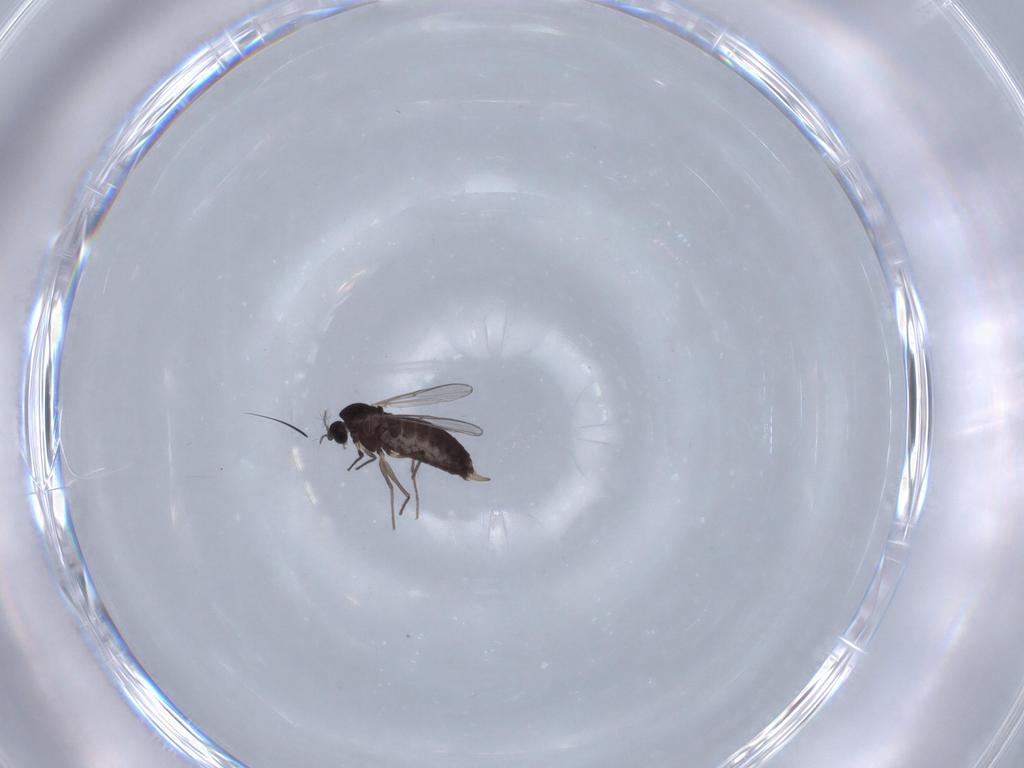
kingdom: Animalia
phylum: Arthropoda
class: Insecta
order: Diptera
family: Chironomidae
